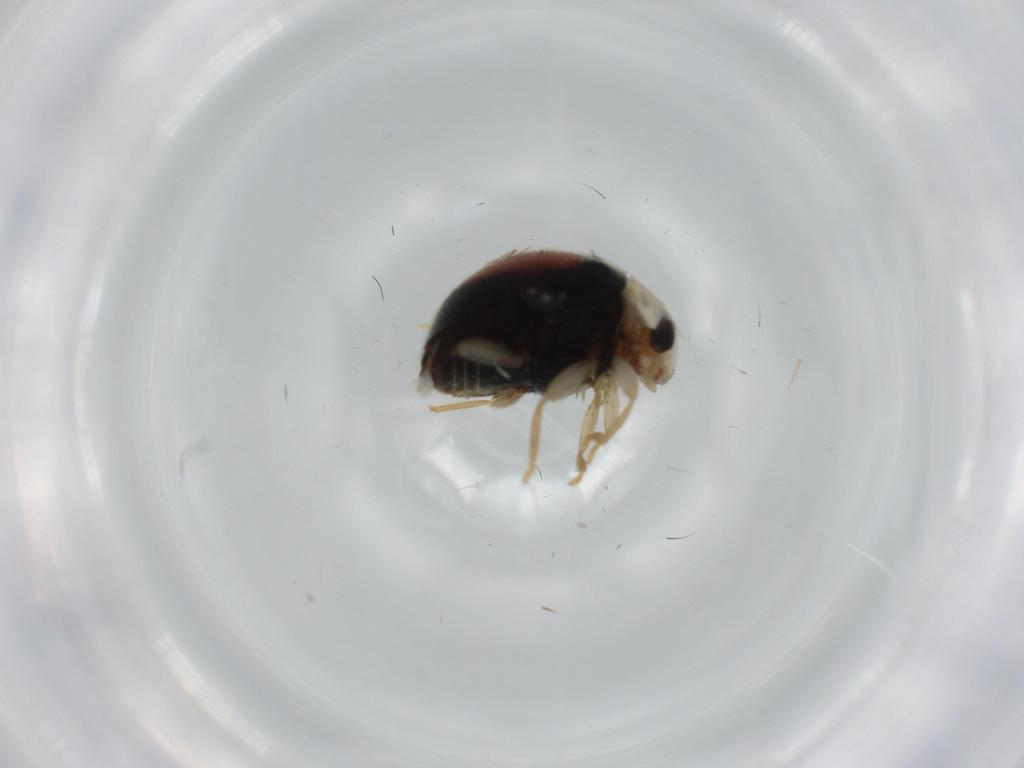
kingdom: Animalia
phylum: Arthropoda
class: Insecta
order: Coleoptera
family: Coccinellidae
